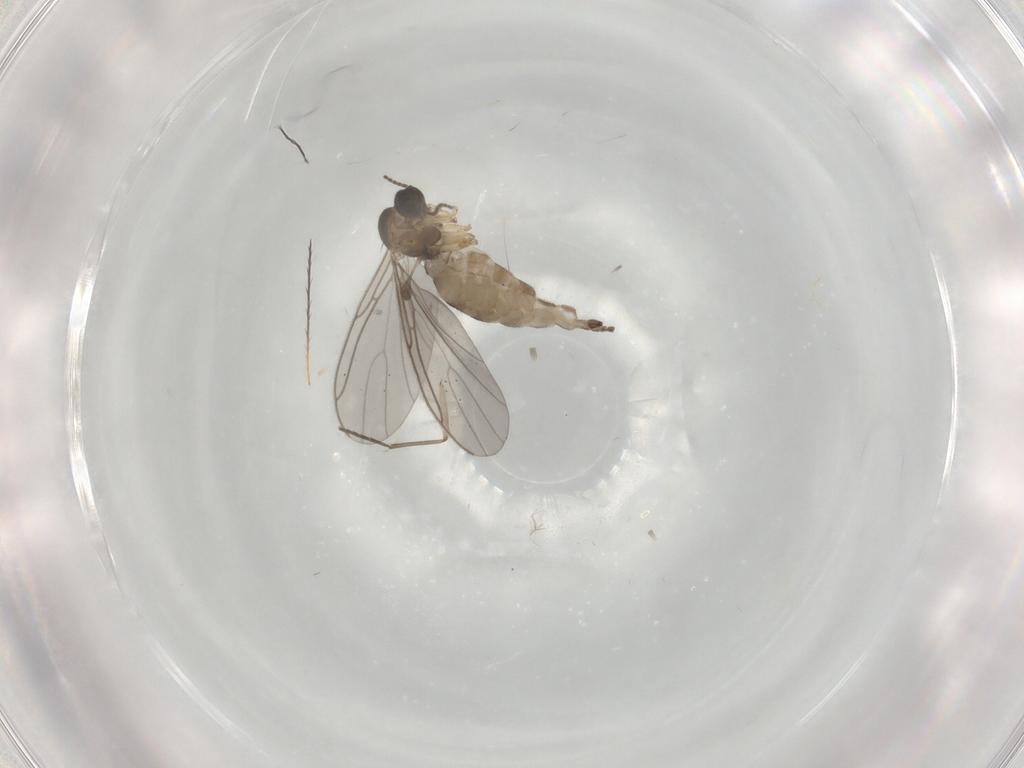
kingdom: Animalia
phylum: Arthropoda
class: Insecta
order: Diptera
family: Sciaridae
